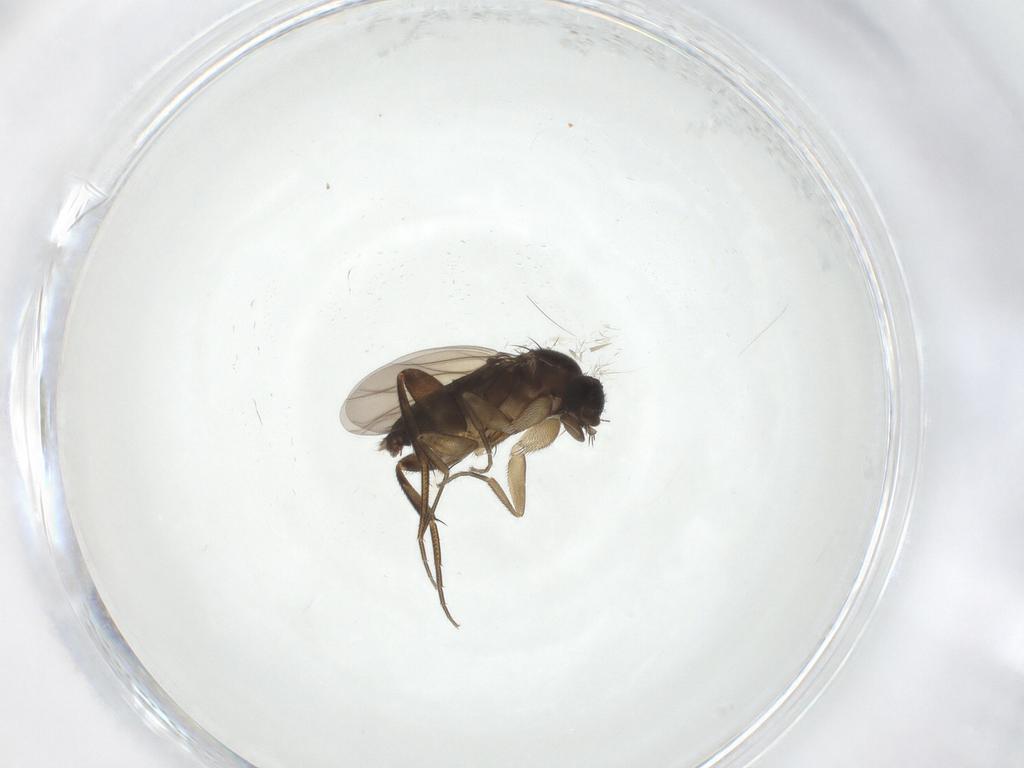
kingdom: Animalia
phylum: Arthropoda
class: Insecta
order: Diptera
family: Phoridae
